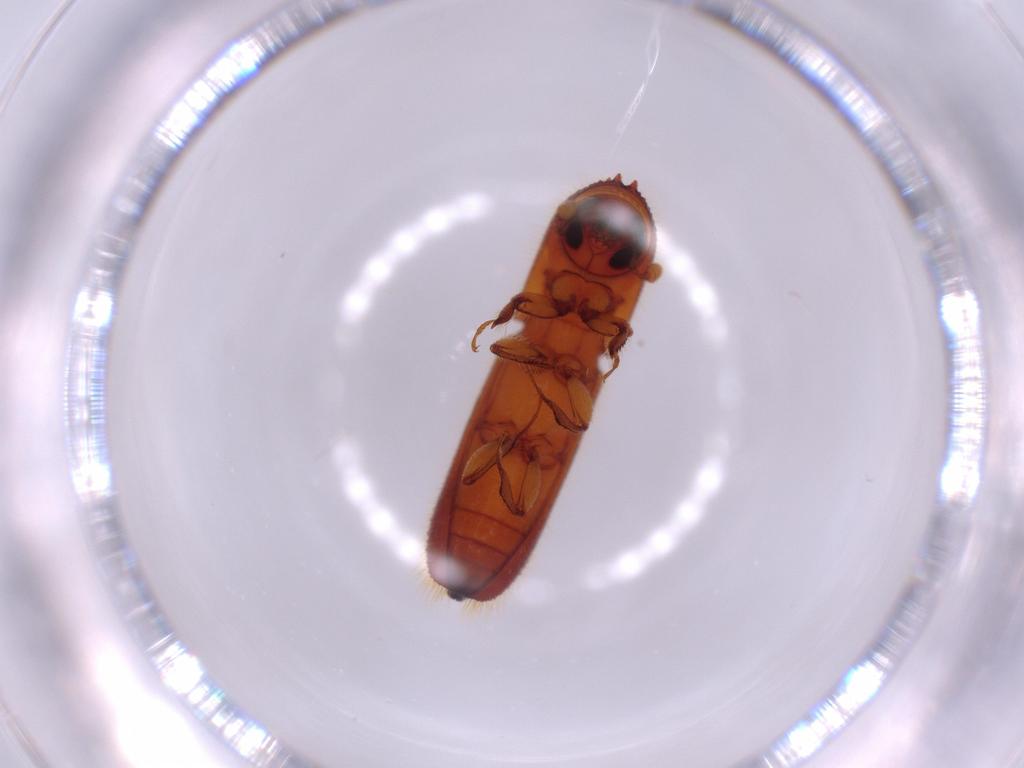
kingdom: Animalia
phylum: Arthropoda
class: Insecta
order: Coleoptera
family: Curculionidae
